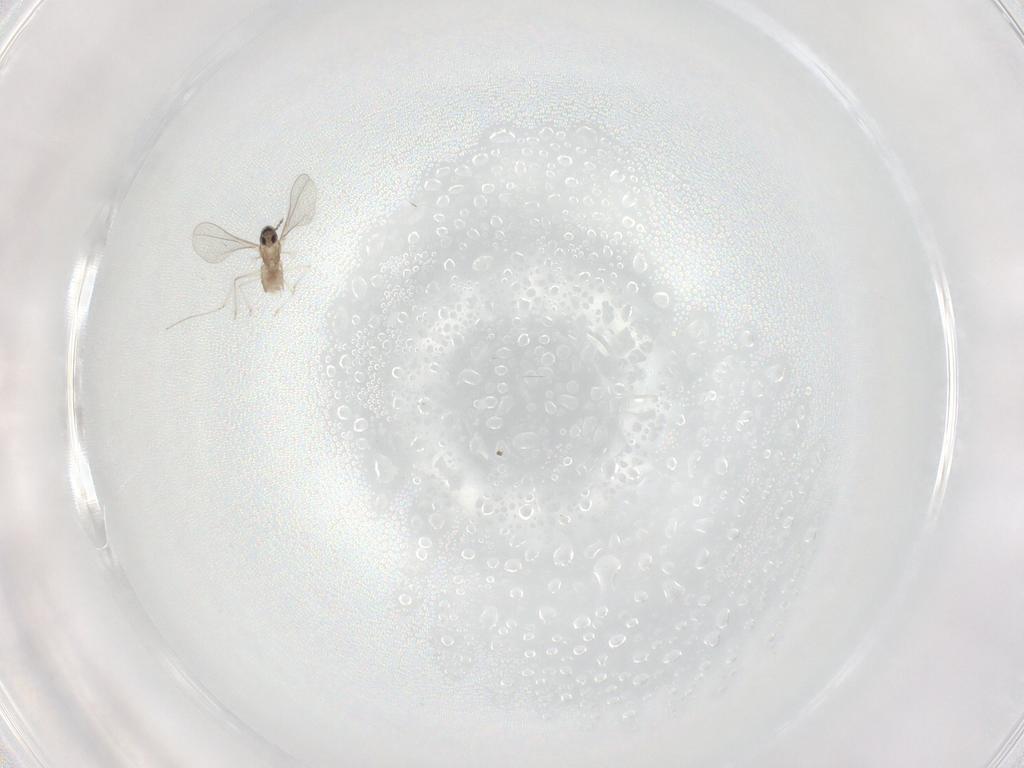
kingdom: Animalia
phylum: Arthropoda
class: Insecta
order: Diptera
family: Cecidomyiidae
